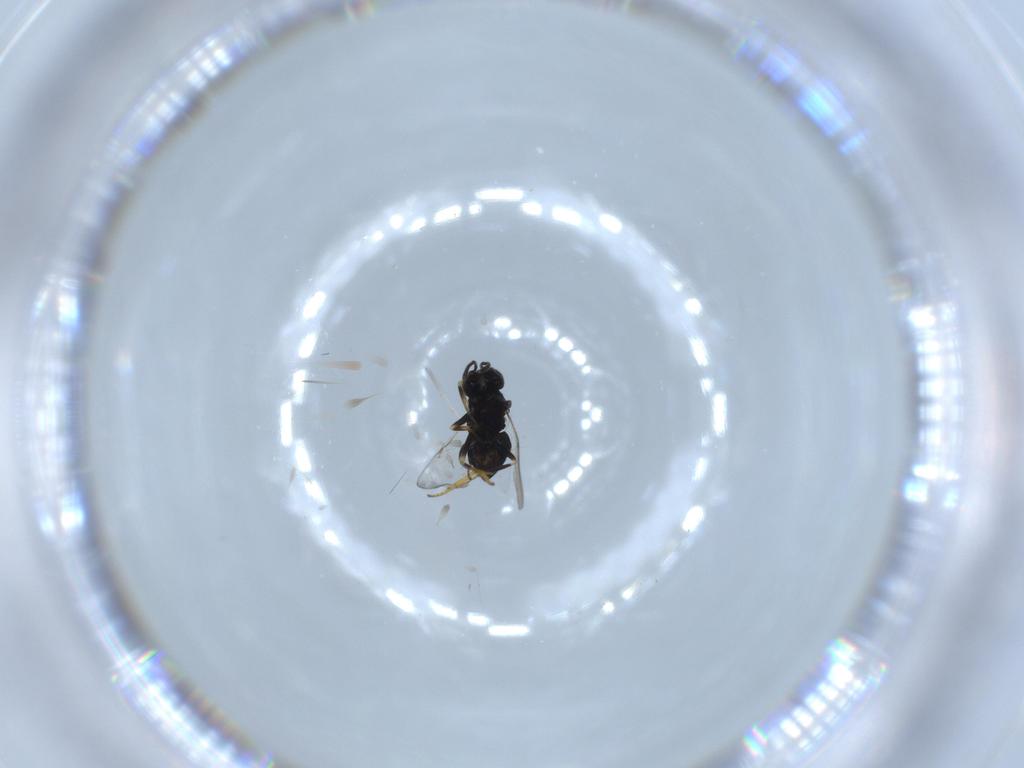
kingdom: Animalia
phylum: Arthropoda
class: Insecta
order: Hymenoptera
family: Encyrtidae
